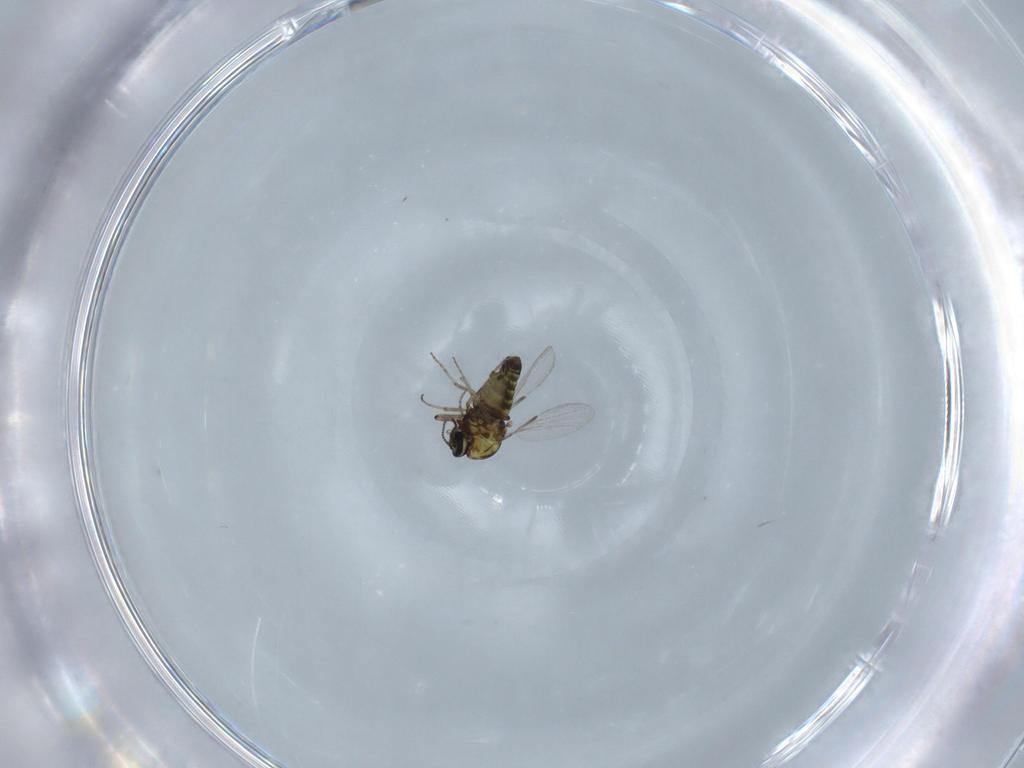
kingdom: Animalia
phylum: Arthropoda
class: Insecta
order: Diptera
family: Ceratopogonidae
